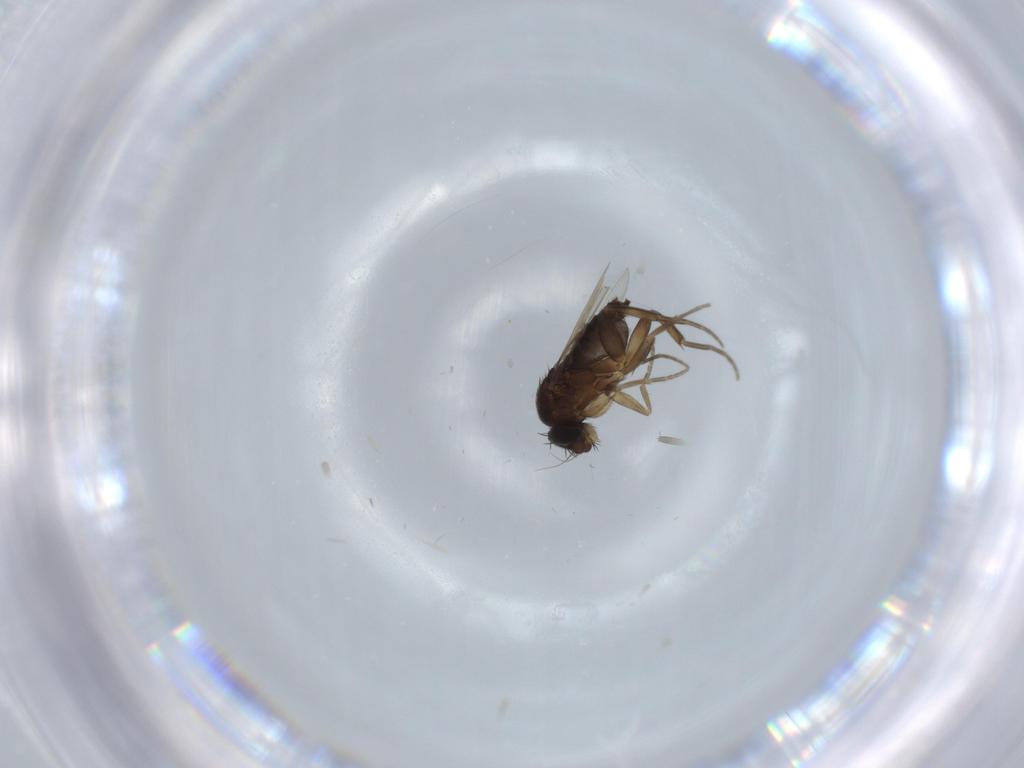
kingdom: Animalia
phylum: Arthropoda
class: Insecta
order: Diptera
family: Phoridae
